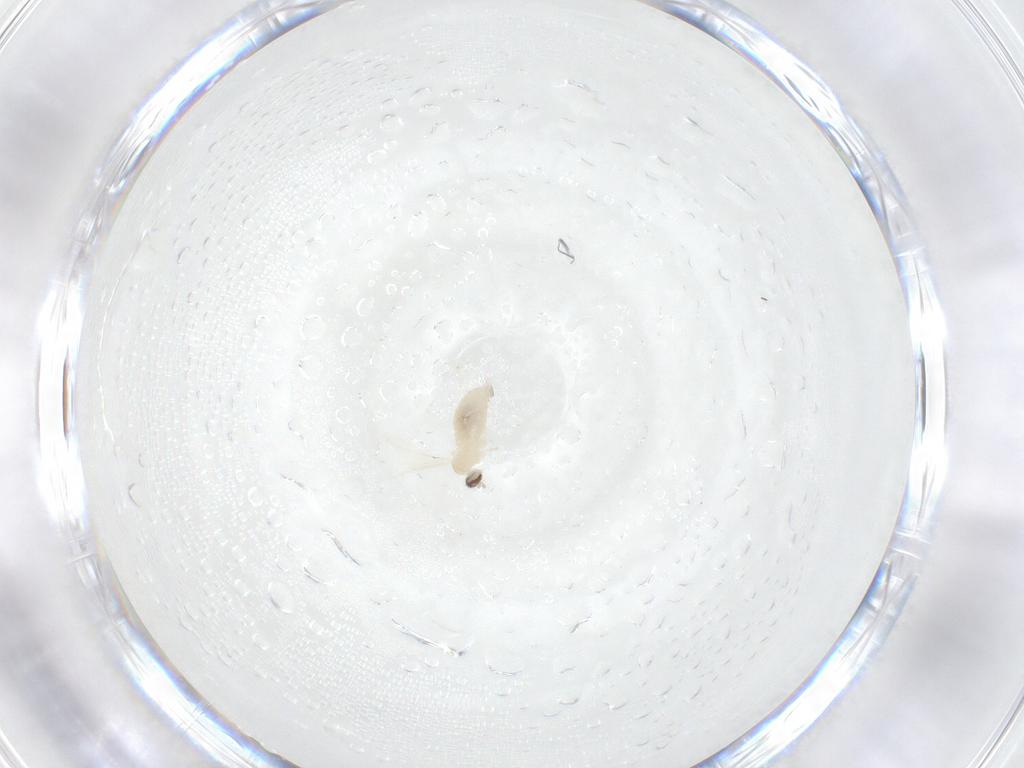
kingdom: Animalia
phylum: Arthropoda
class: Insecta
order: Diptera
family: Cecidomyiidae
